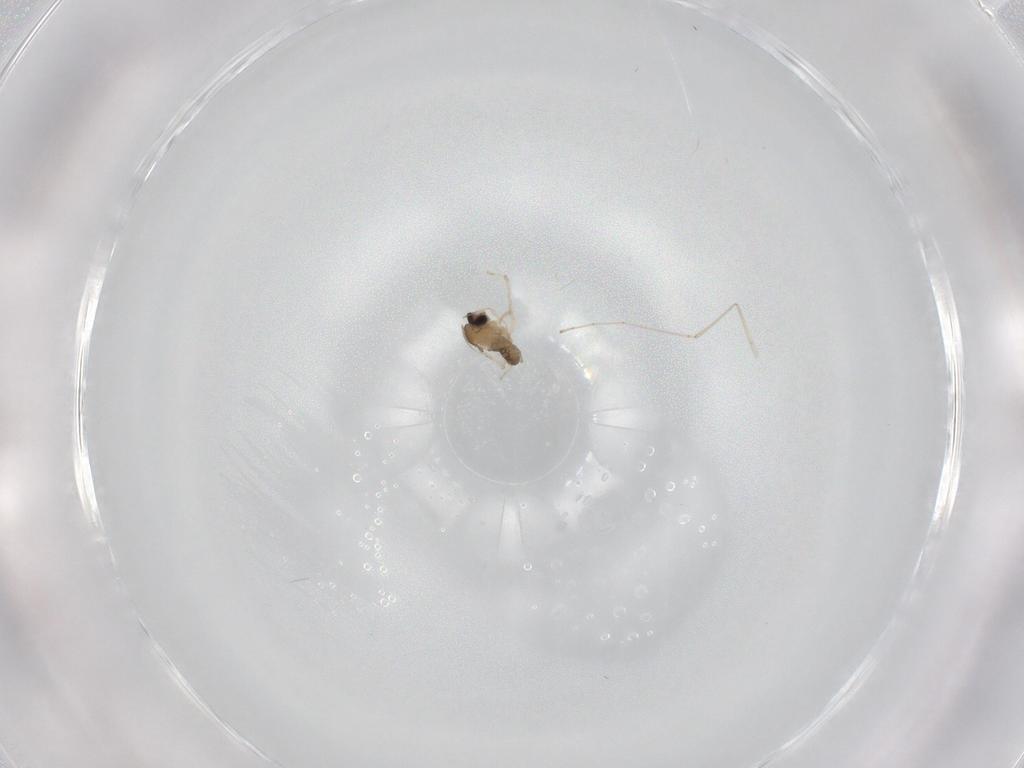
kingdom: Animalia
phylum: Arthropoda
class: Insecta
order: Diptera
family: Cecidomyiidae
